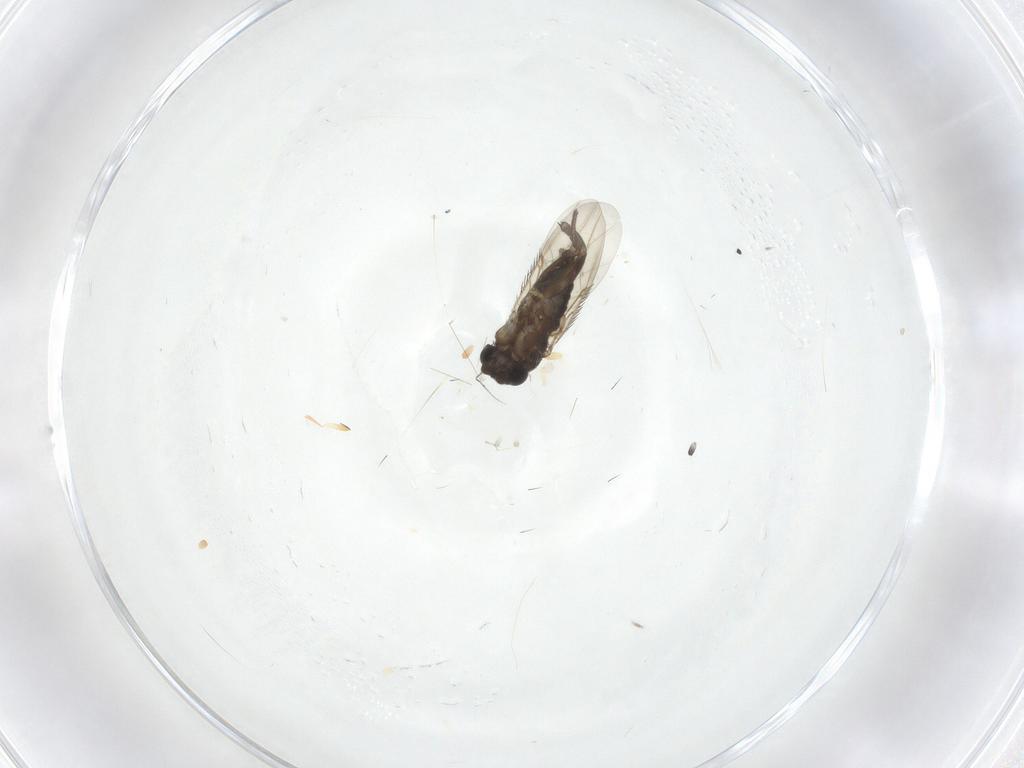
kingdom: Animalia
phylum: Arthropoda
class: Insecta
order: Diptera
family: Phoridae
